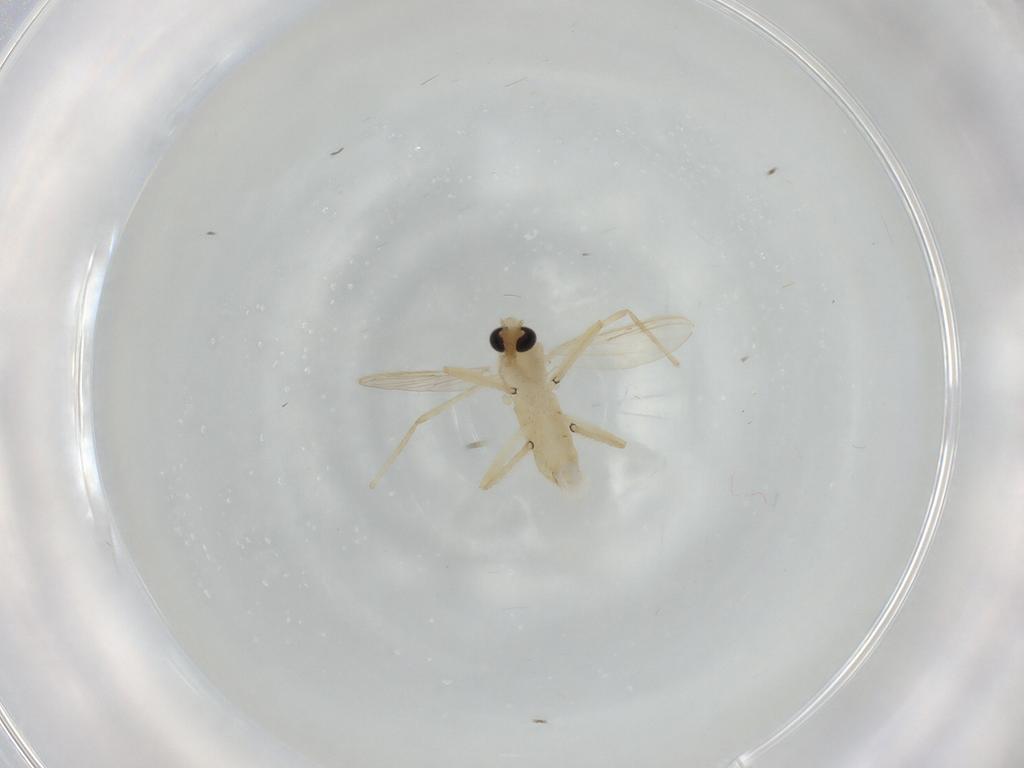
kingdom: Animalia
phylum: Arthropoda
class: Insecta
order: Diptera
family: Chironomidae
